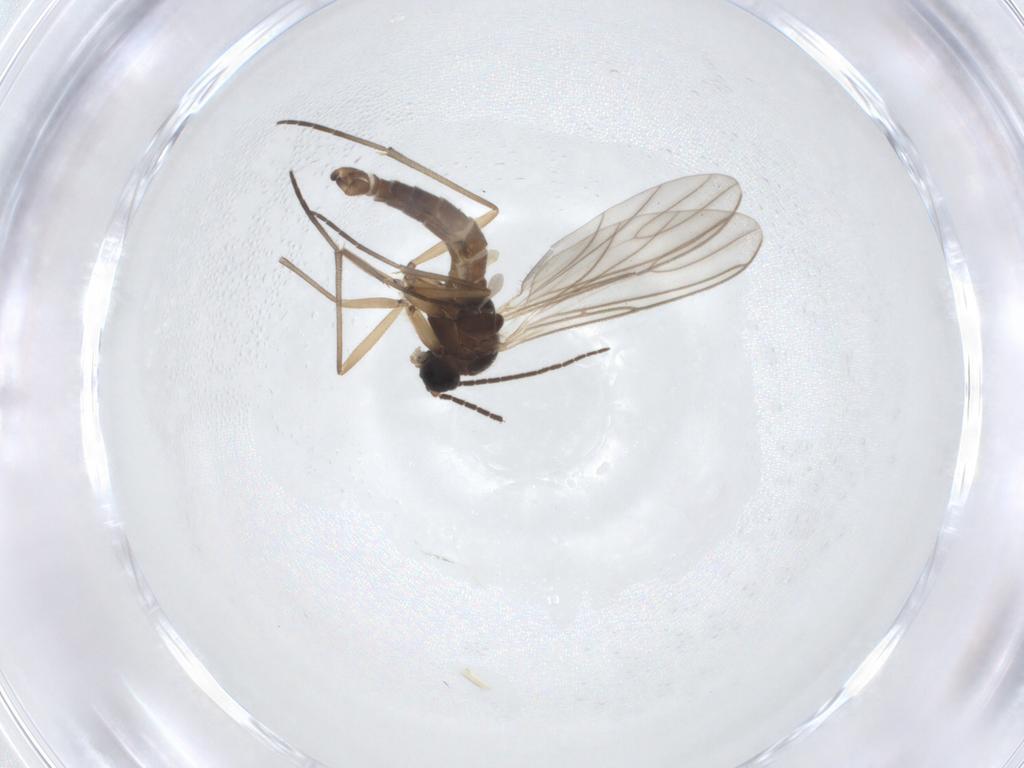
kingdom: Animalia
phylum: Arthropoda
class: Insecta
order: Diptera
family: Sciaridae
